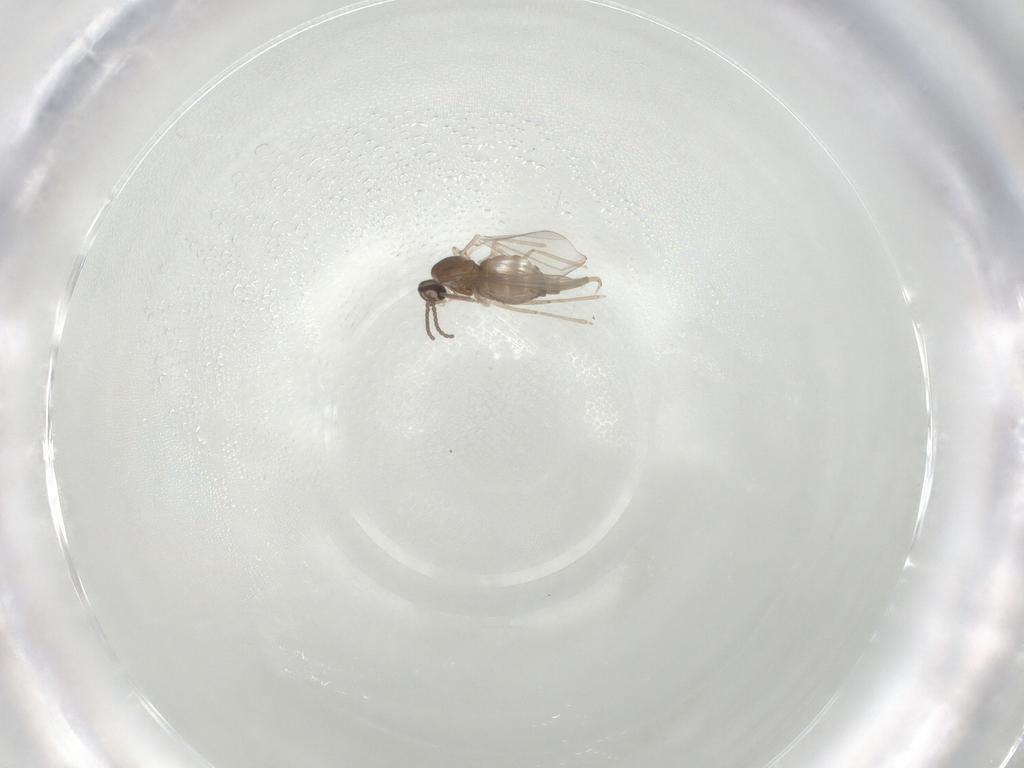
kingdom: Animalia
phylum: Arthropoda
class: Insecta
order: Diptera
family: Cecidomyiidae
